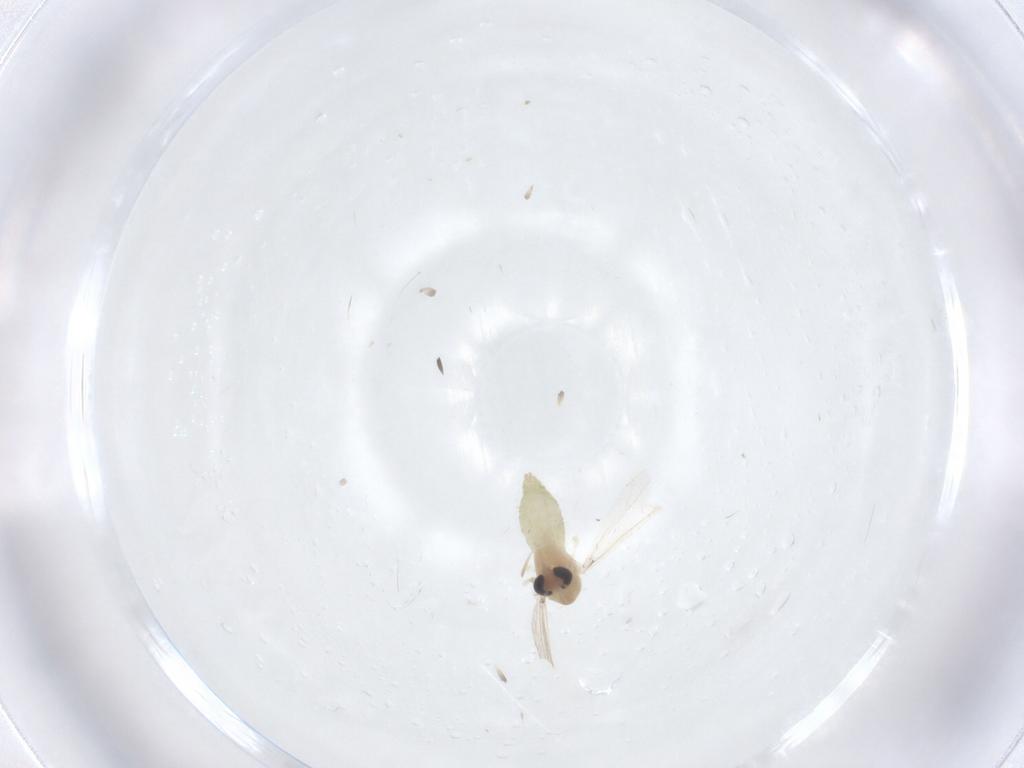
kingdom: Animalia
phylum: Arthropoda
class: Insecta
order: Diptera
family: Chironomidae
